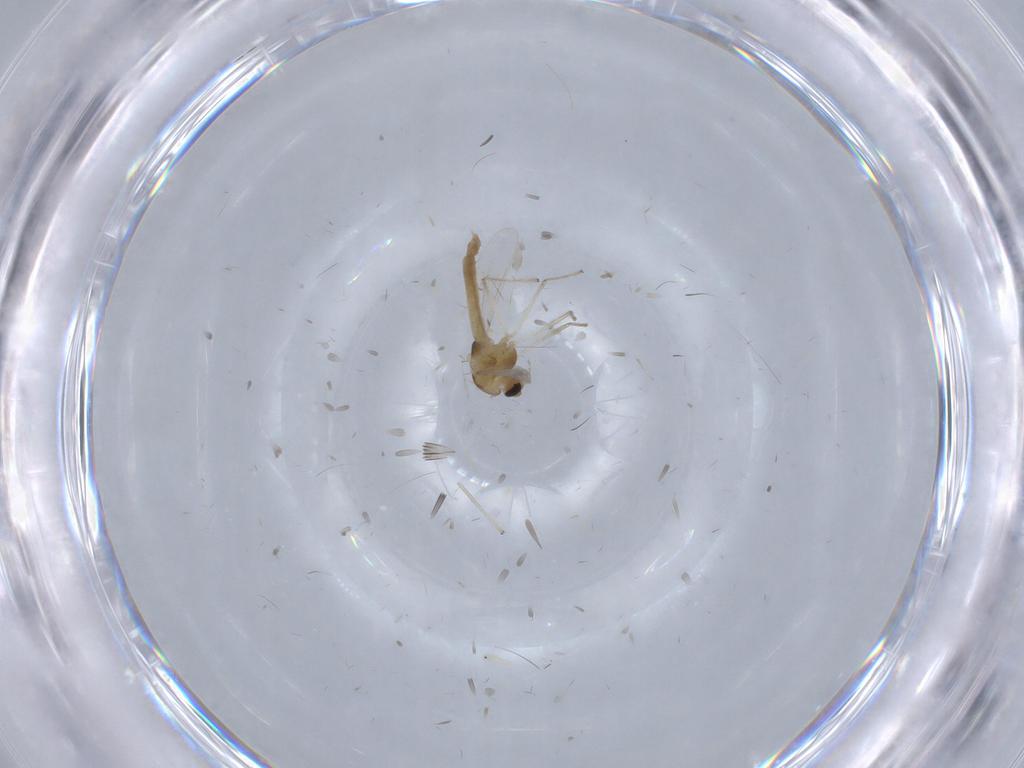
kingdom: Animalia
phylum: Arthropoda
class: Insecta
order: Diptera
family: Chironomidae
